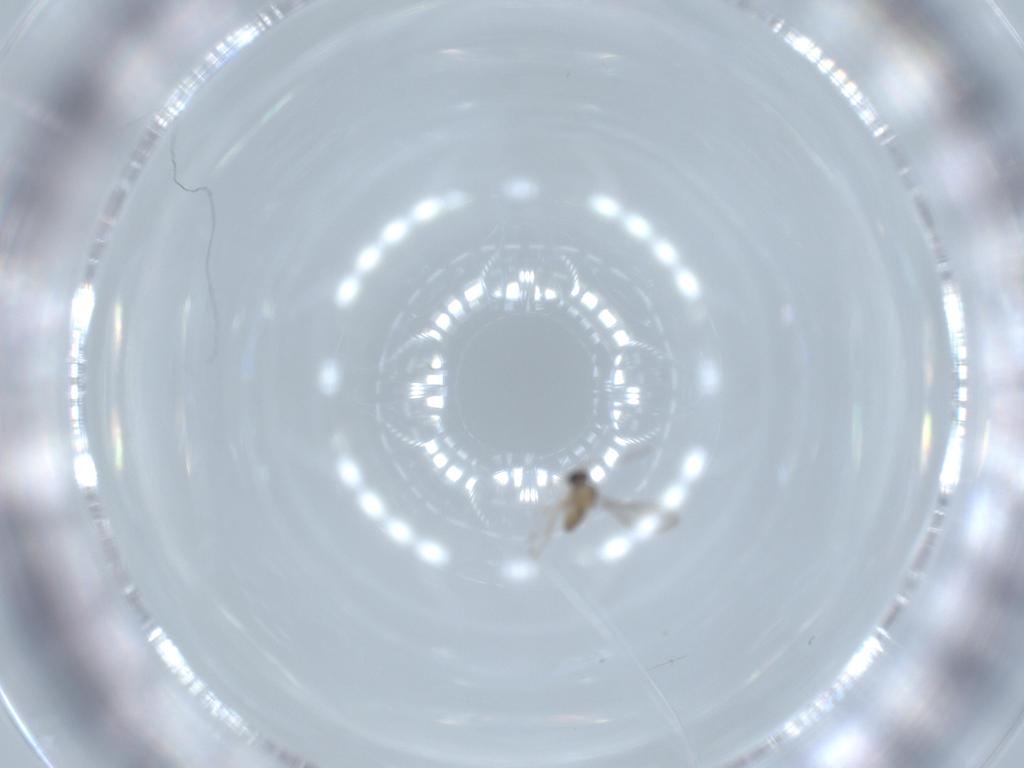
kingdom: Animalia
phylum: Arthropoda
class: Insecta
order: Diptera
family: Cecidomyiidae
